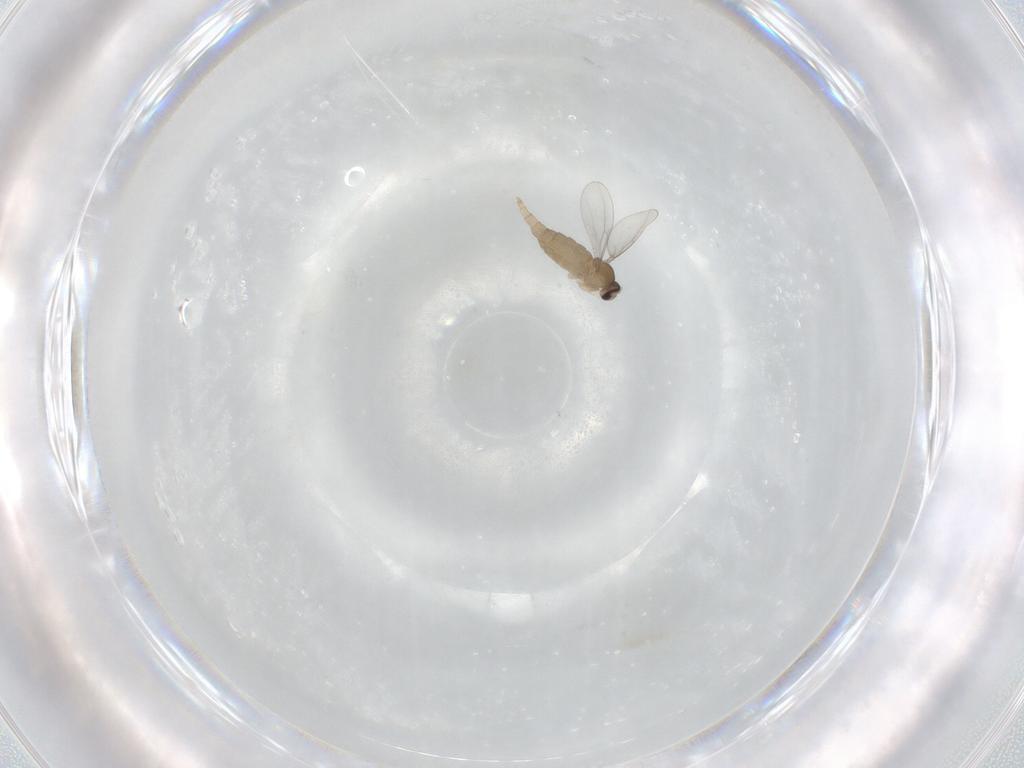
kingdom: Animalia
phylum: Arthropoda
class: Insecta
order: Diptera
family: Cecidomyiidae
